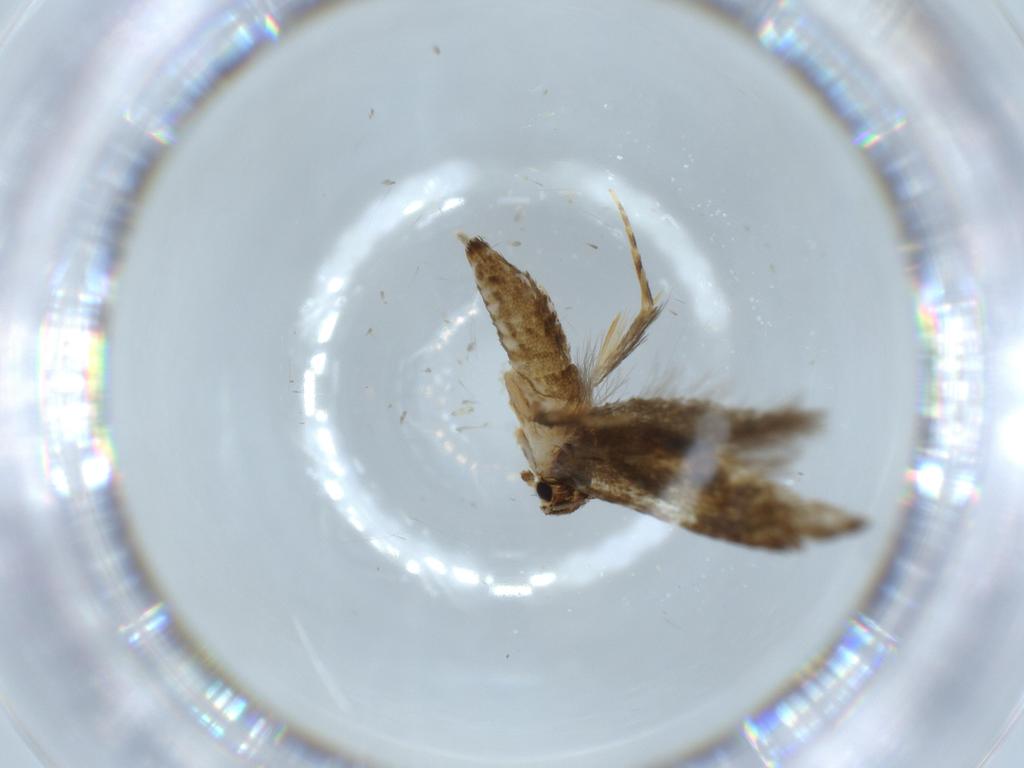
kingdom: Animalia
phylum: Arthropoda
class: Insecta
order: Lepidoptera
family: Tineidae
